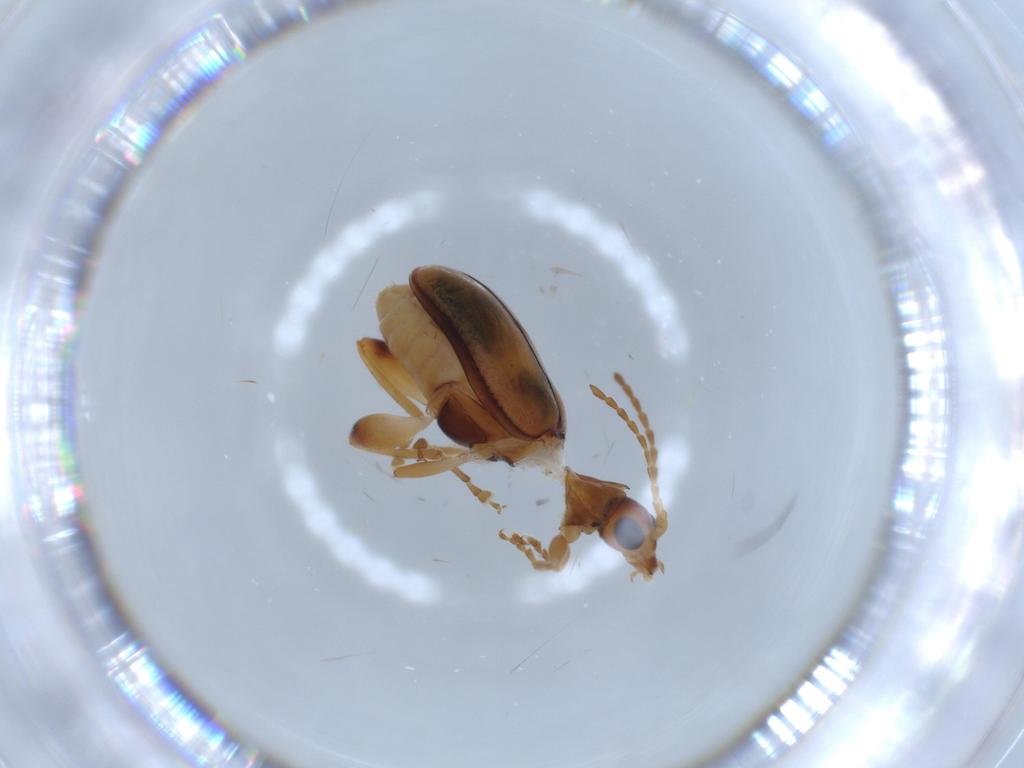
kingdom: Animalia
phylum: Arthropoda
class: Insecta
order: Coleoptera
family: Chrysomelidae
